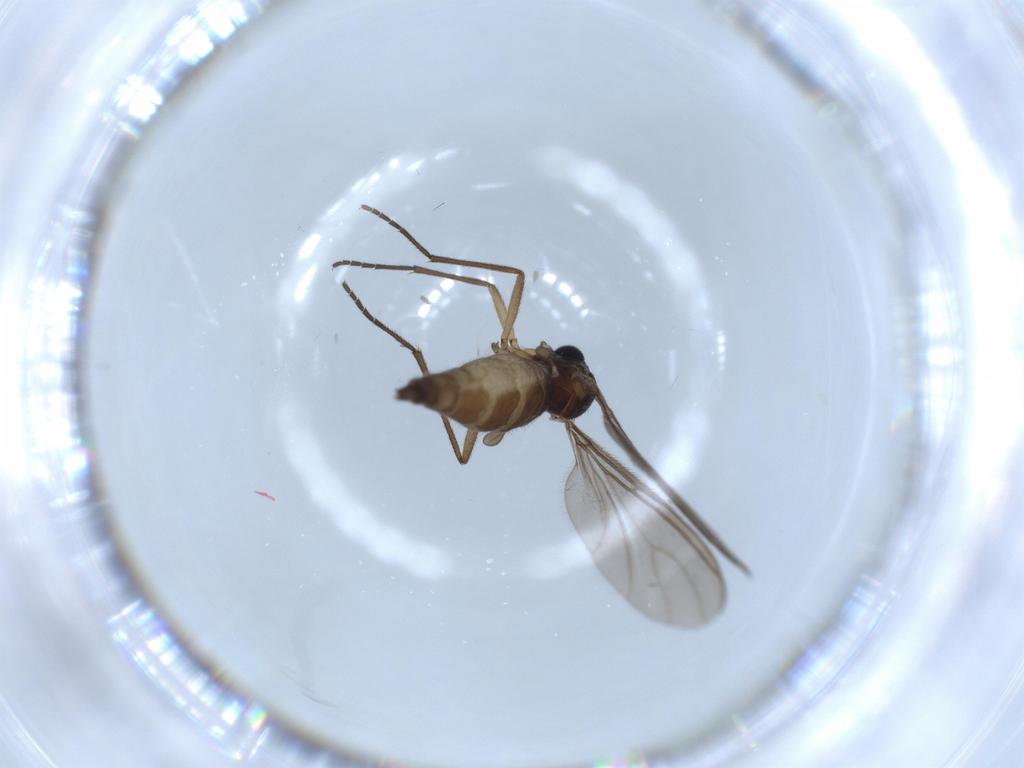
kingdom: Animalia
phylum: Arthropoda
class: Insecta
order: Diptera
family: Sciaridae
